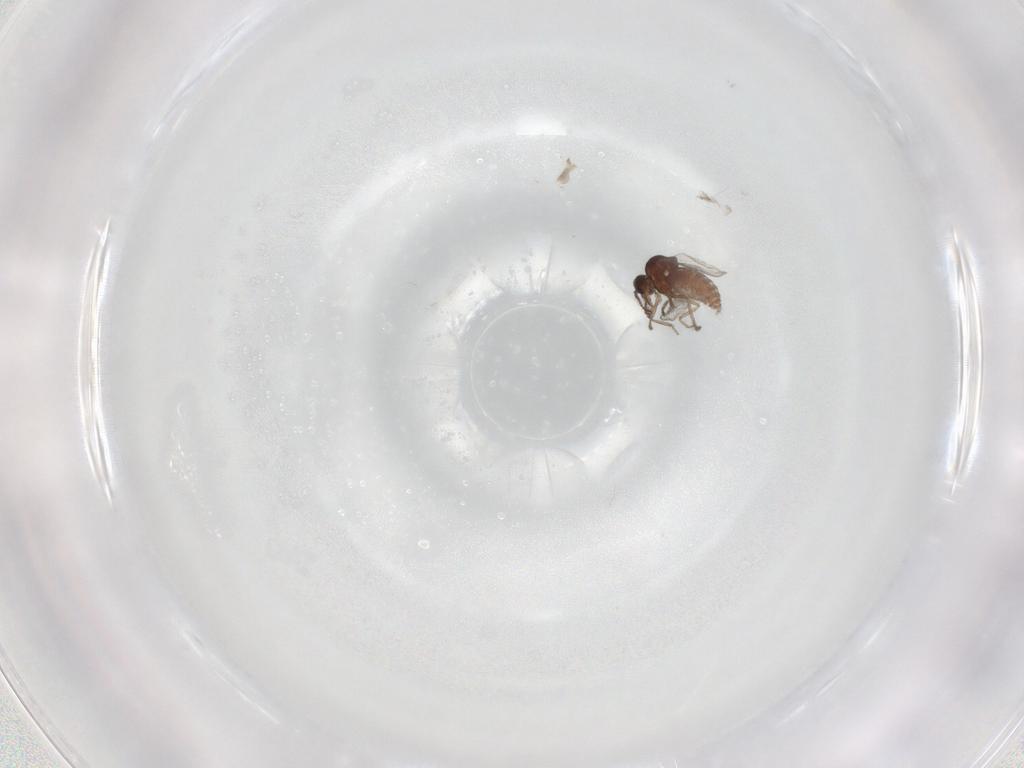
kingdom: Animalia
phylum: Arthropoda
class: Insecta
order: Diptera
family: Ceratopogonidae
